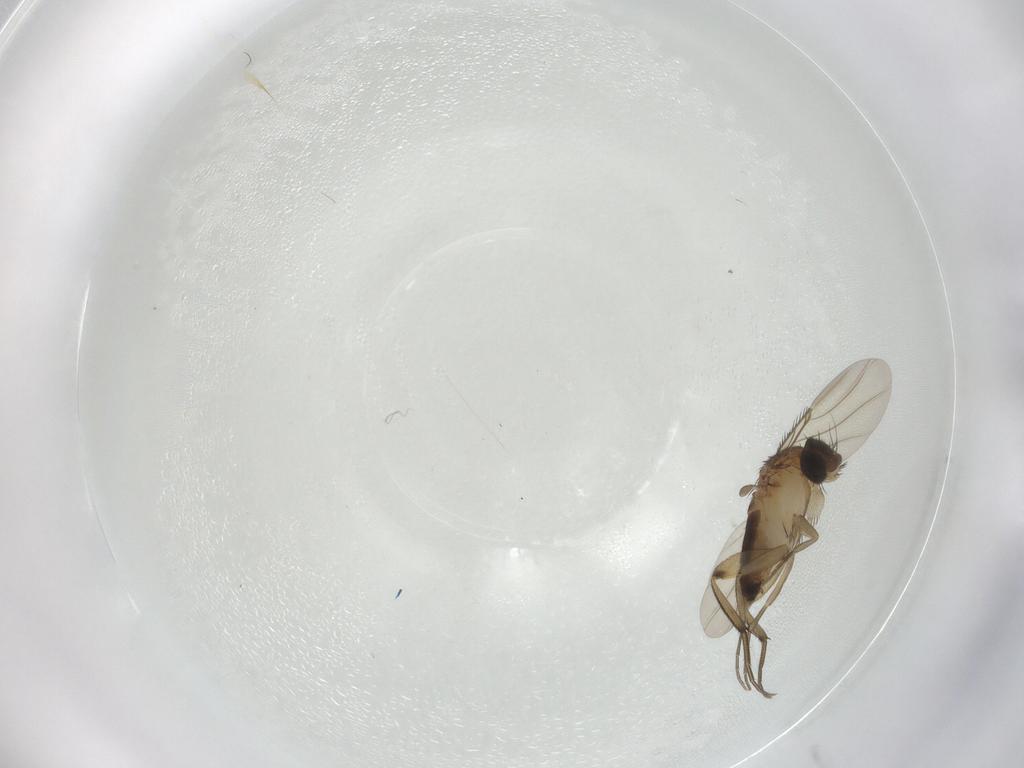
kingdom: Animalia
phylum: Arthropoda
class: Insecta
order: Diptera
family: Phoridae
